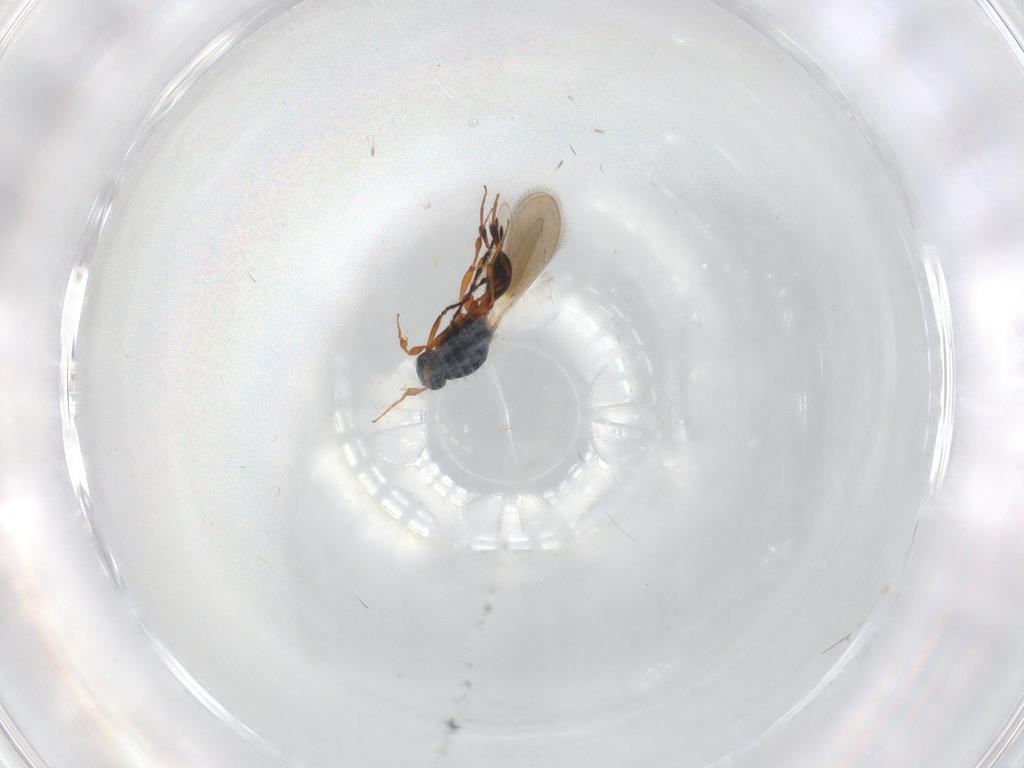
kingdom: Animalia
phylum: Arthropoda
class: Insecta
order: Hymenoptera
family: Platygastridae
